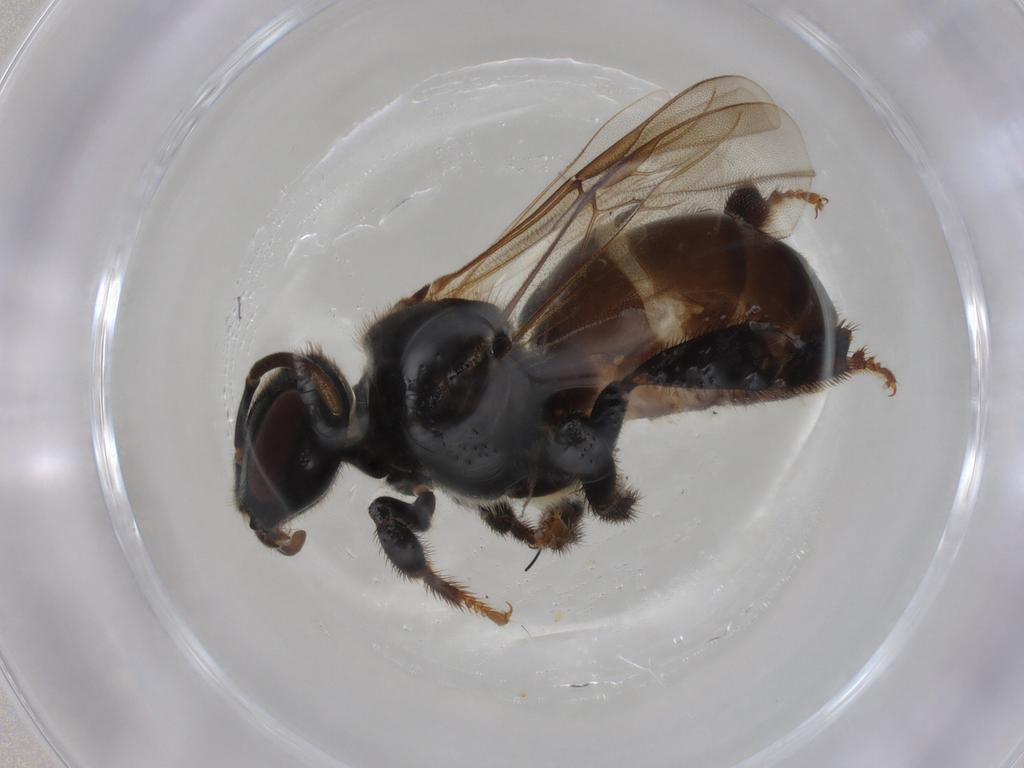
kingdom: Animalia
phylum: Arthropoda
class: Insecta
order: Hymenoptera
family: Apidae
